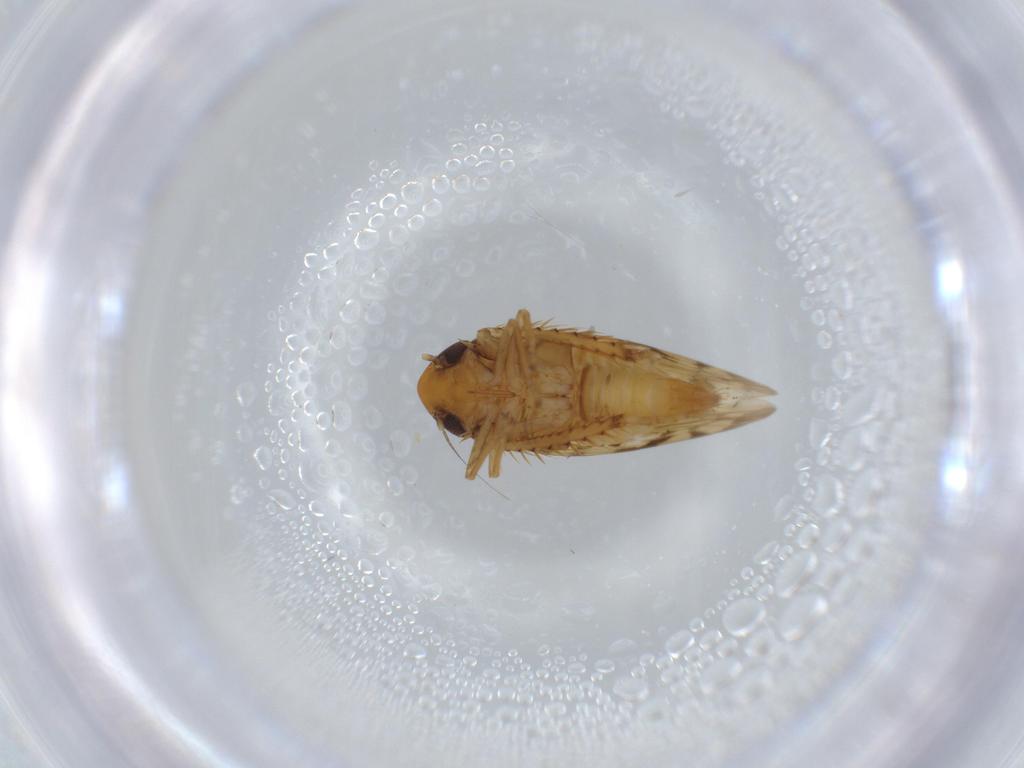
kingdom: Animalia
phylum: Arthropoda
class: Insecta
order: Hemiptera
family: Cicadellidae
